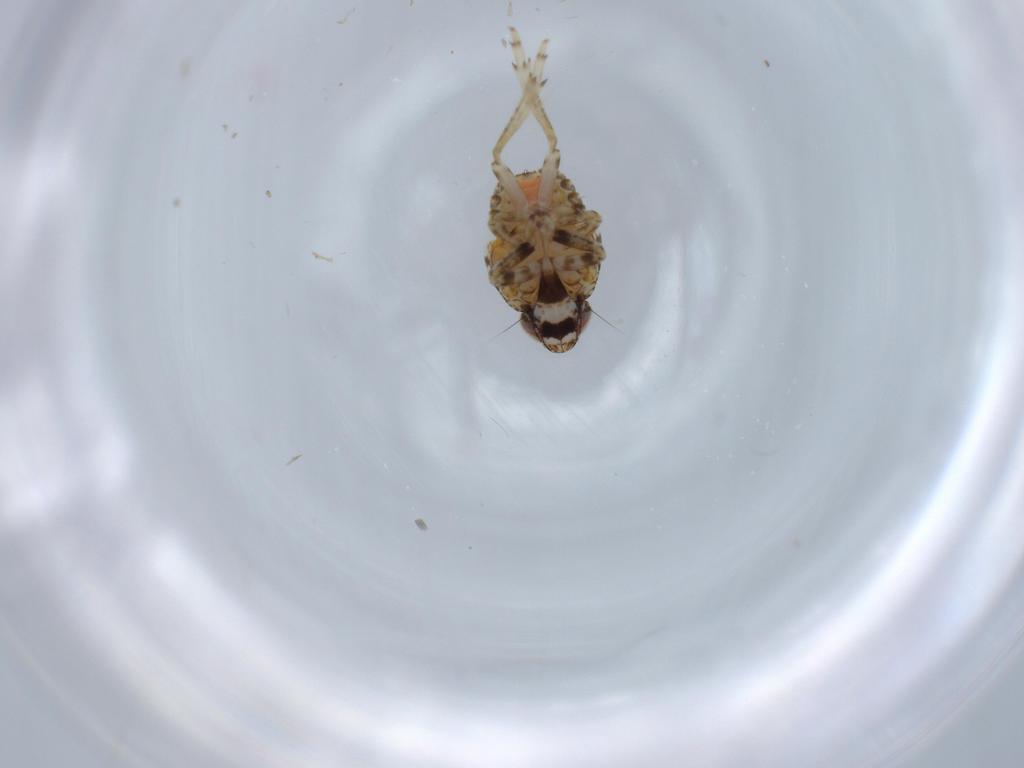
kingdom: Animalia
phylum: Arthropoda
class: Insecta
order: Hemiptera
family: Issidae
